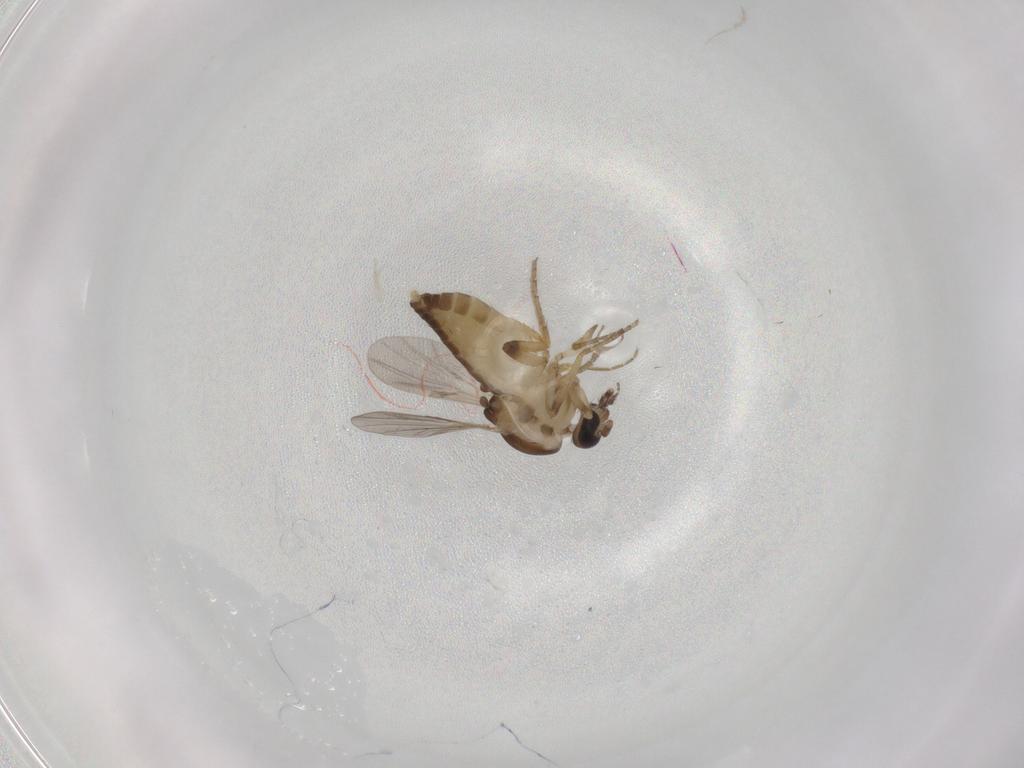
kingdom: Animalia
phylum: Arthropoda
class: Insecta
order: Diptera
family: Ceratopogonidae
